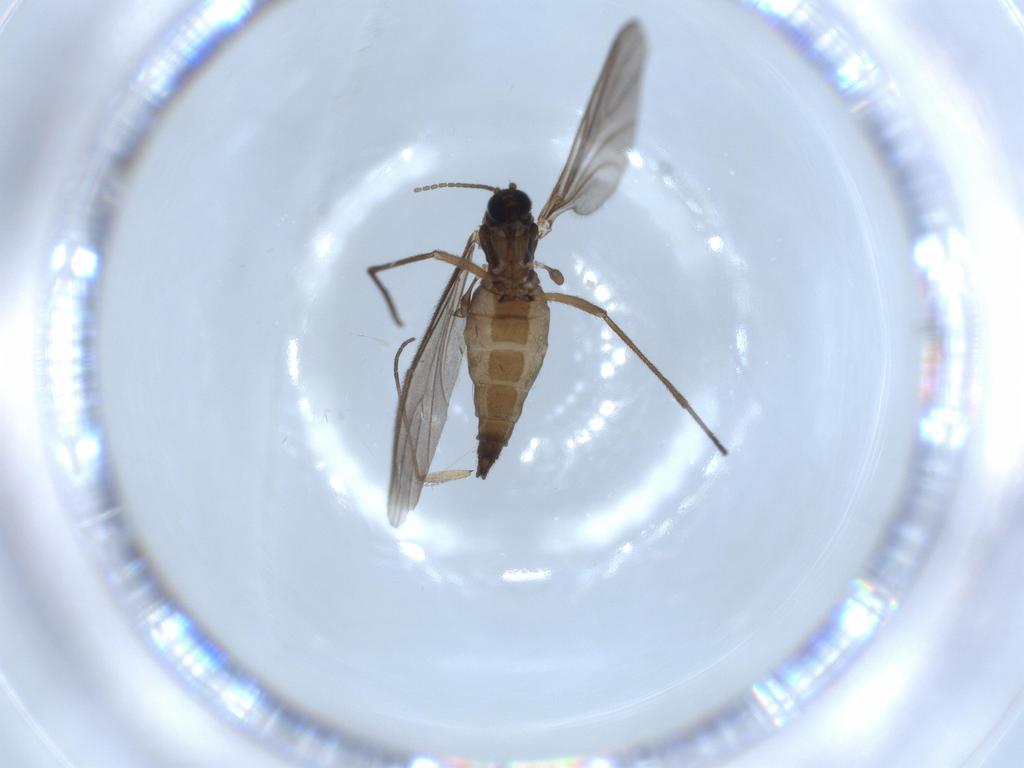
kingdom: Animalia
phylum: Arthropoda
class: Insecta
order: Diptera
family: Sciaridae
